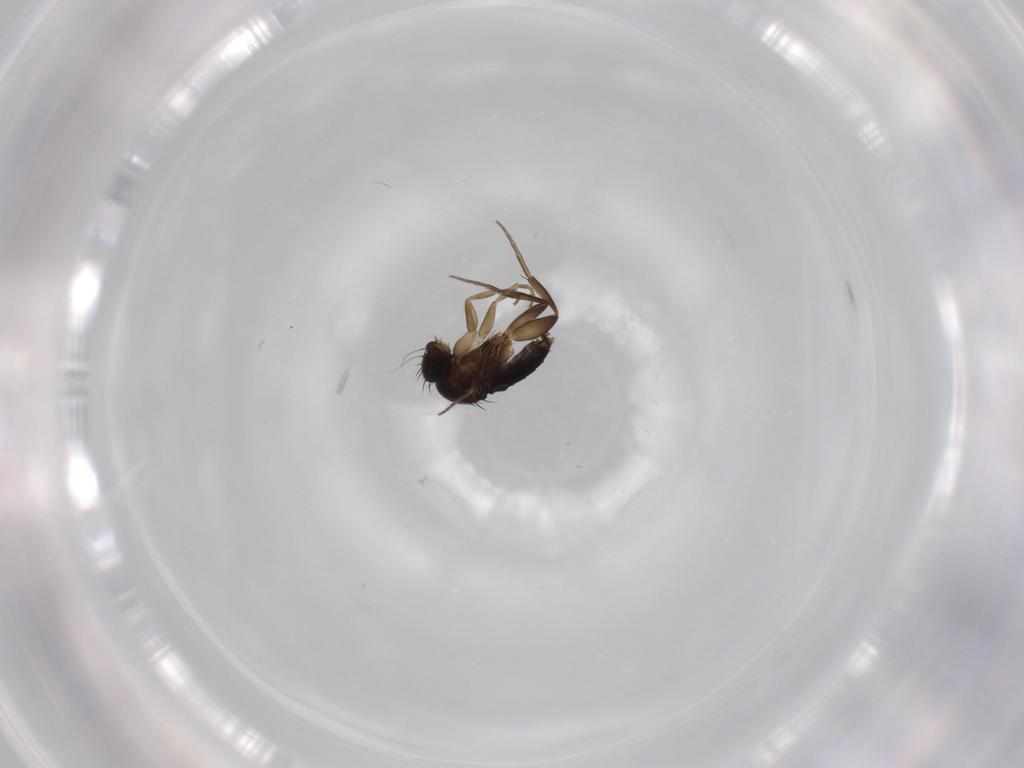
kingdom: Animalia
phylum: Arthropoda
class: Insecta
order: Diptera
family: Phoridae
